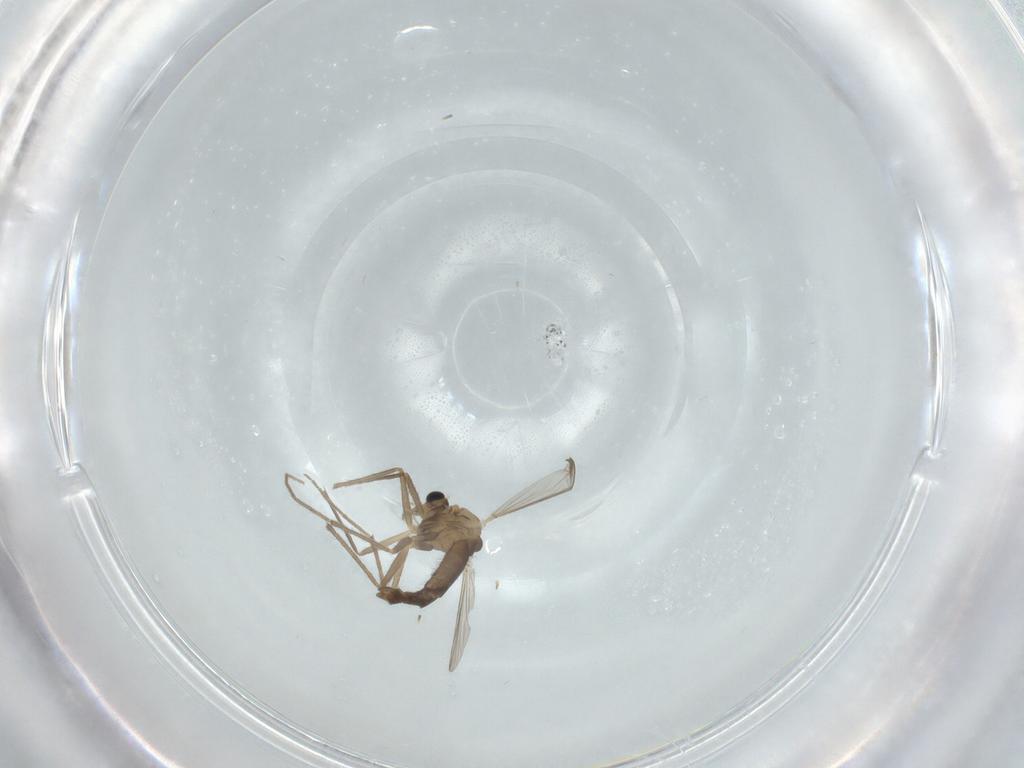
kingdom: Animalia
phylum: Arthropoda
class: Insecta
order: Diptera
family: Chironomidae
